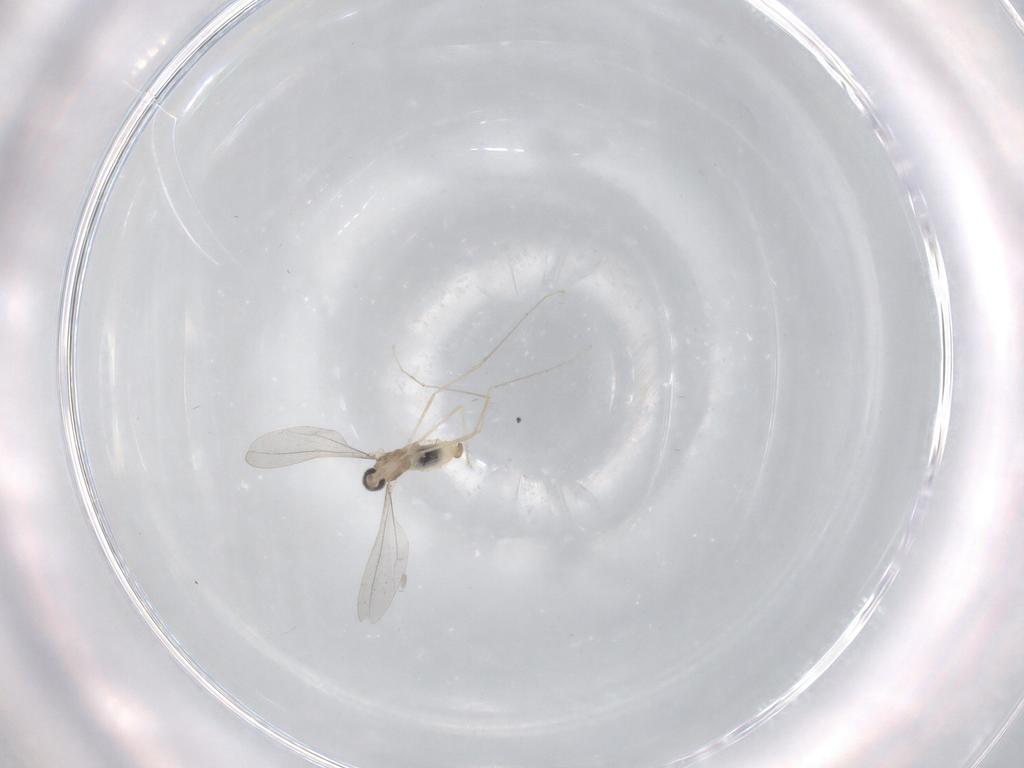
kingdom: Animalia
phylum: Arthropoda
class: Insecta
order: Diptera
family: Cecidomyiidae
